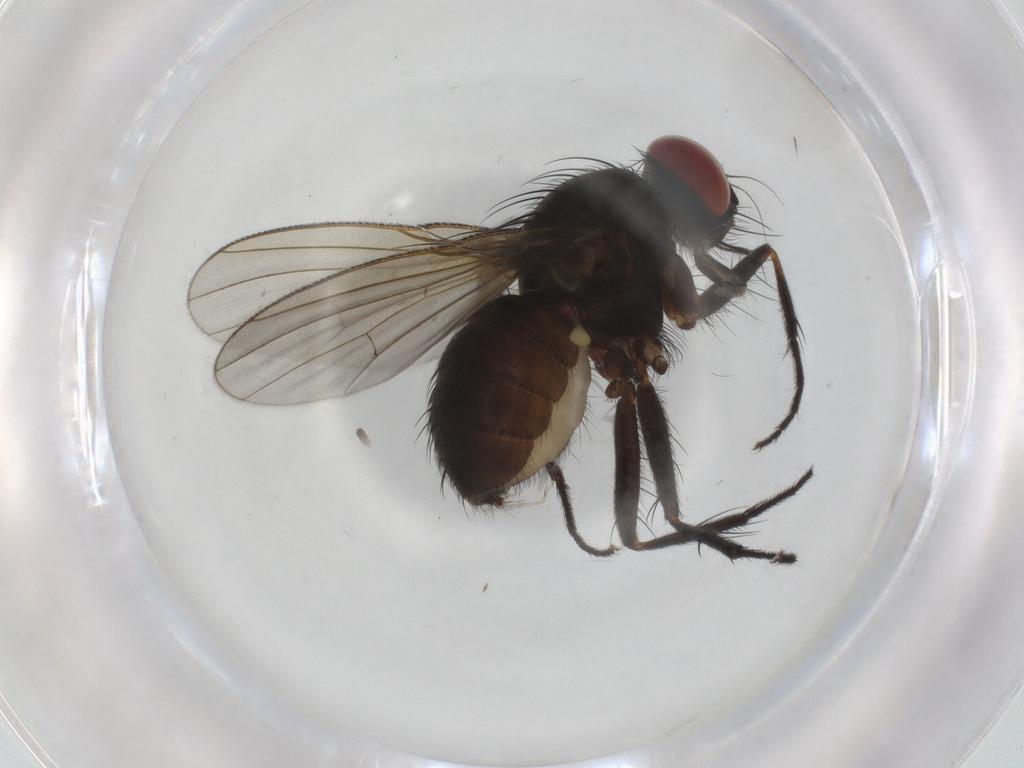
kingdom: Animalia
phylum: Arthropoda
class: Insecta
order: Diptera
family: Muscidae
